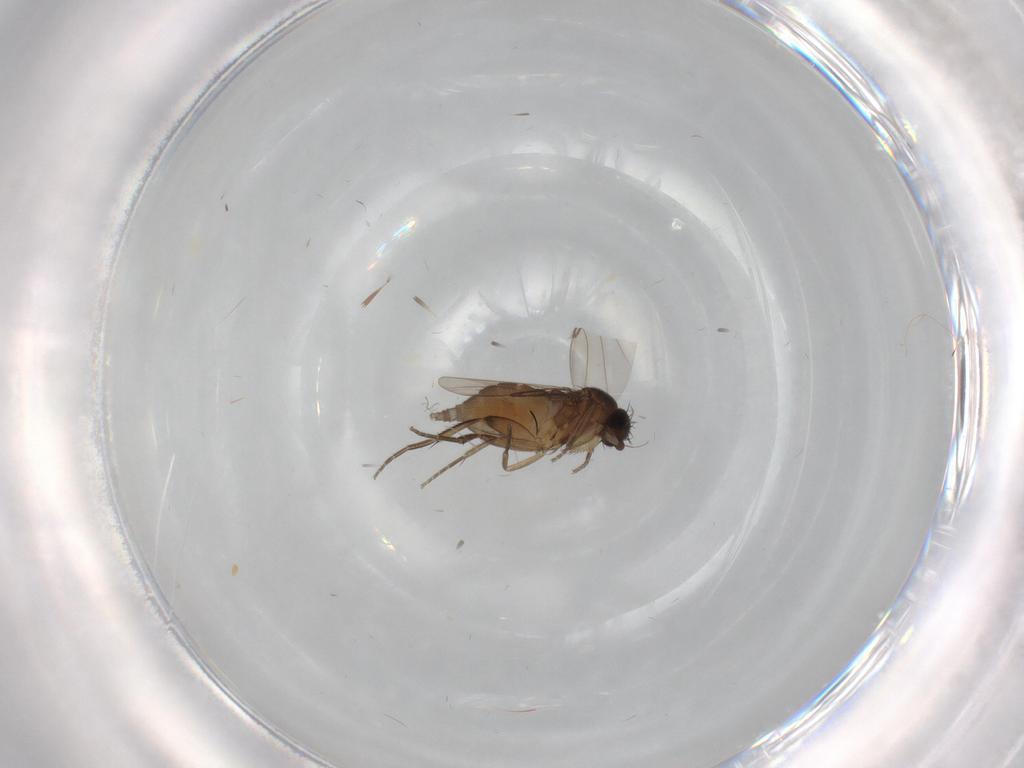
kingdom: Animalia
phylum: Arthropoda
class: Insecta
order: Diptera
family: Phoridae
